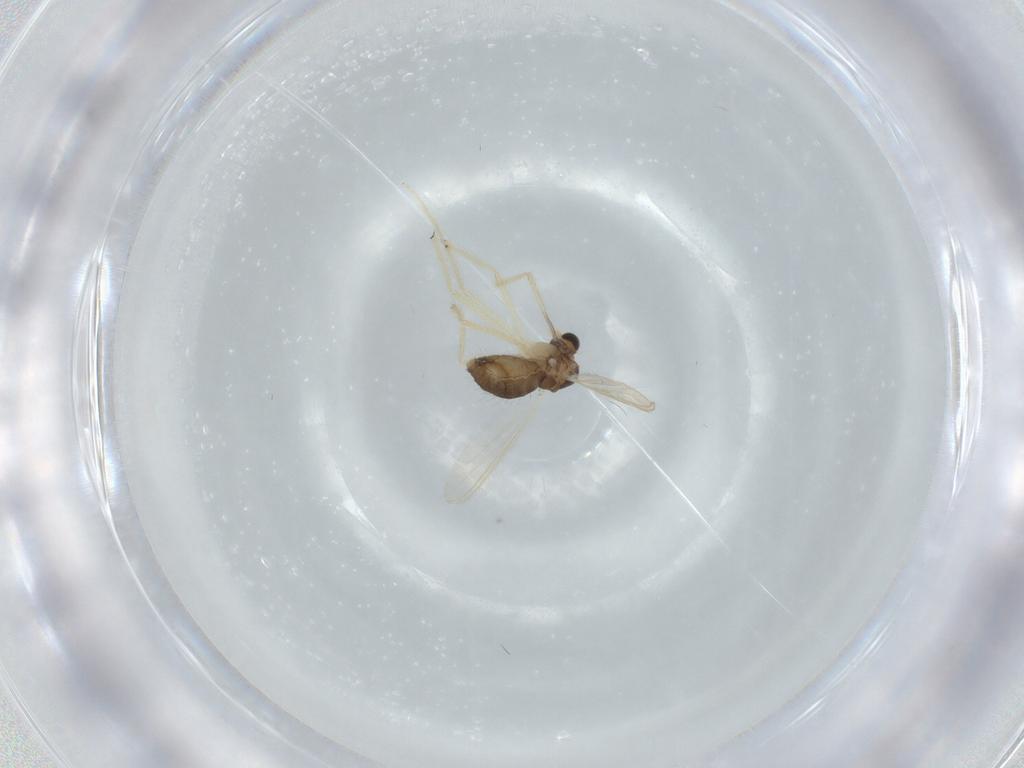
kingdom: Animalia
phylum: Arthropoda
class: Insecta
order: Diptera
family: Chironomidae
